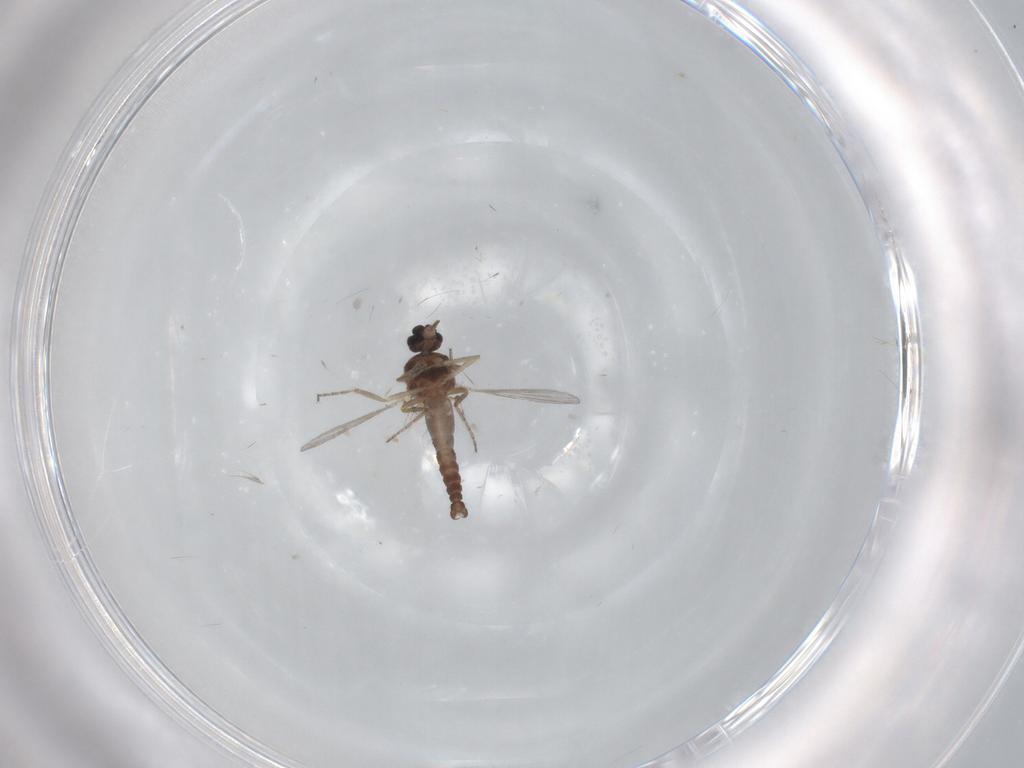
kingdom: Animalia
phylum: Arthropoda
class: Insecta
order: Diptera
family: Ceratopogonidae
